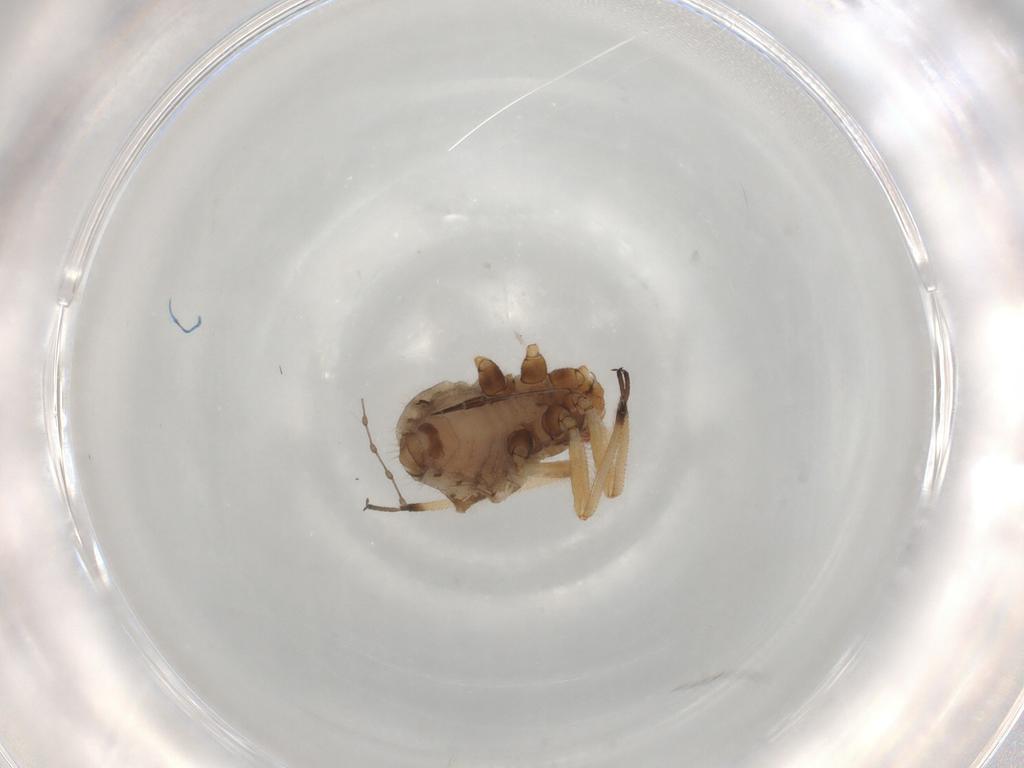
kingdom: Animalia
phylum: Arthropoda
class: Insecta
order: Hemiptera
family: Aphididae
